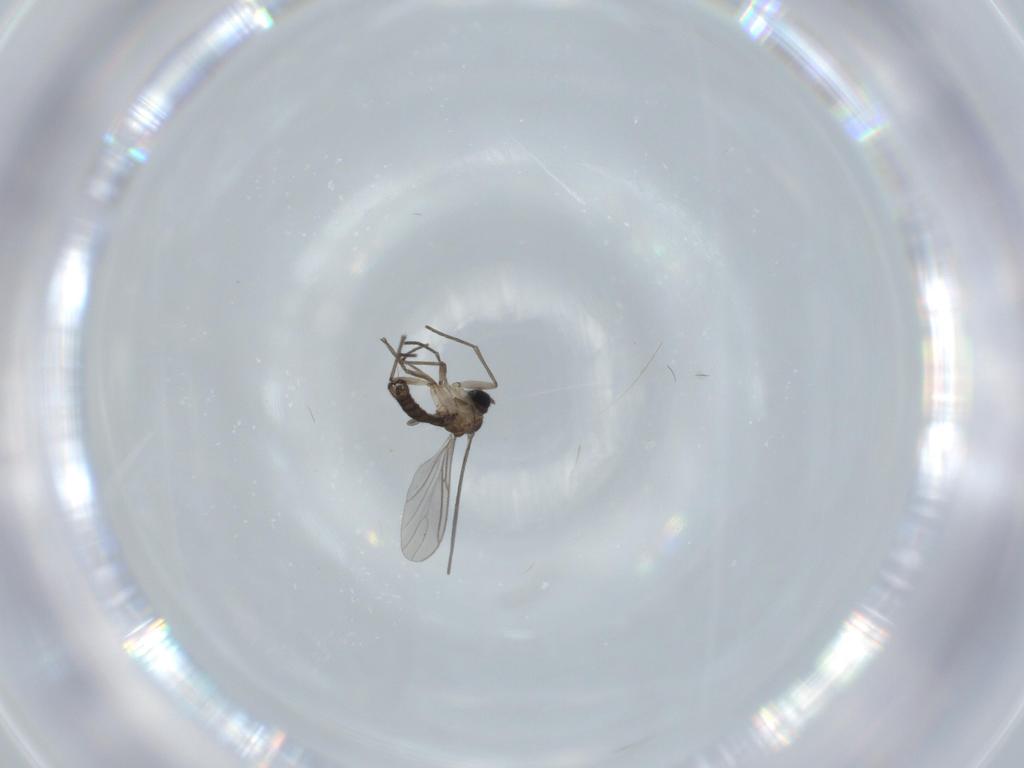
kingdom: Animalia
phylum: Arthropoda
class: Insecta
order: Diptera
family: Sciaridae
